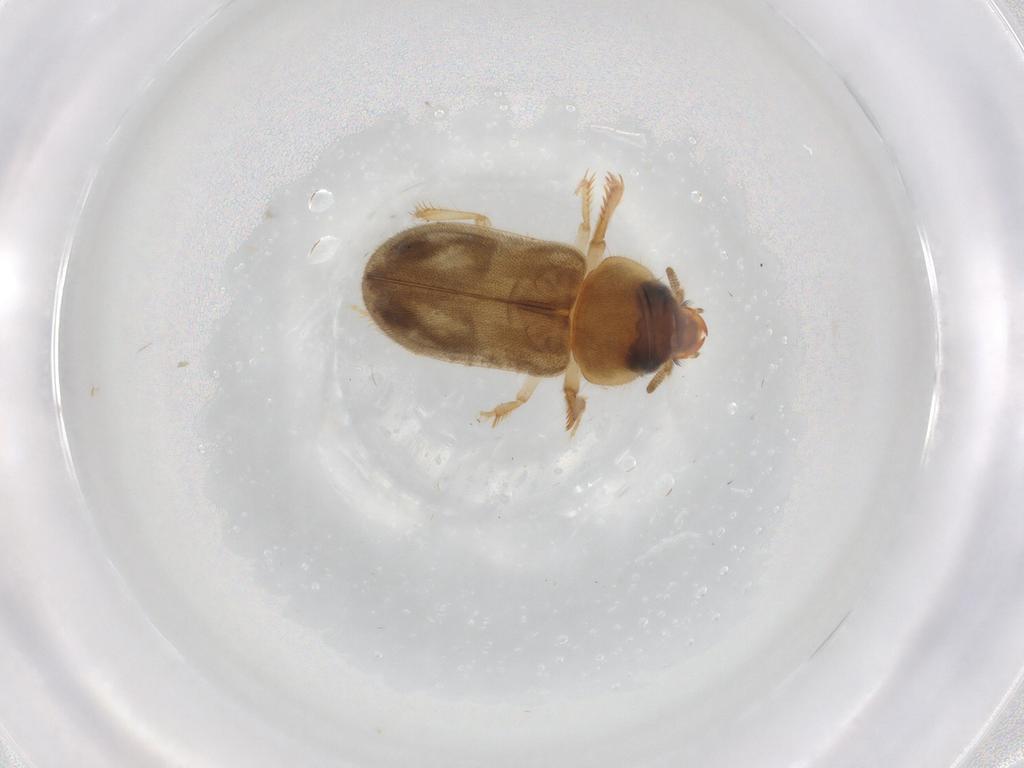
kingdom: Animalia
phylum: Arthropoda
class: Insecta
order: Coleoptera
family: Heteroceridae
